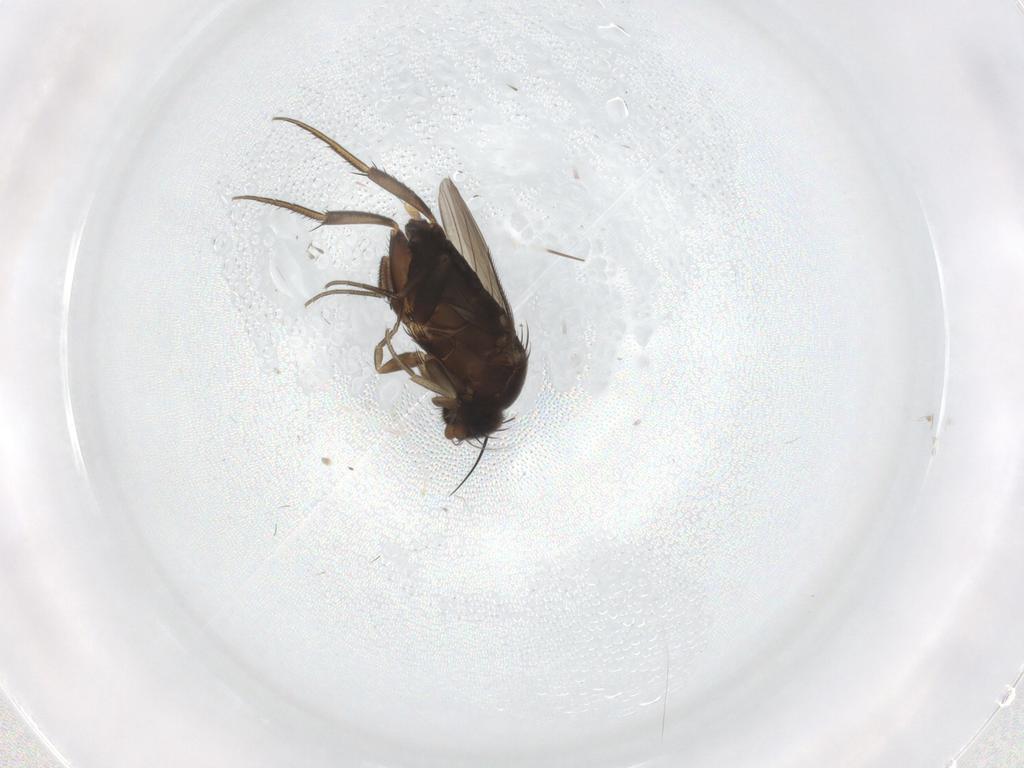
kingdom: Animalia
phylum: Arthropoda
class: Insecta
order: Diptera
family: Phoridae
